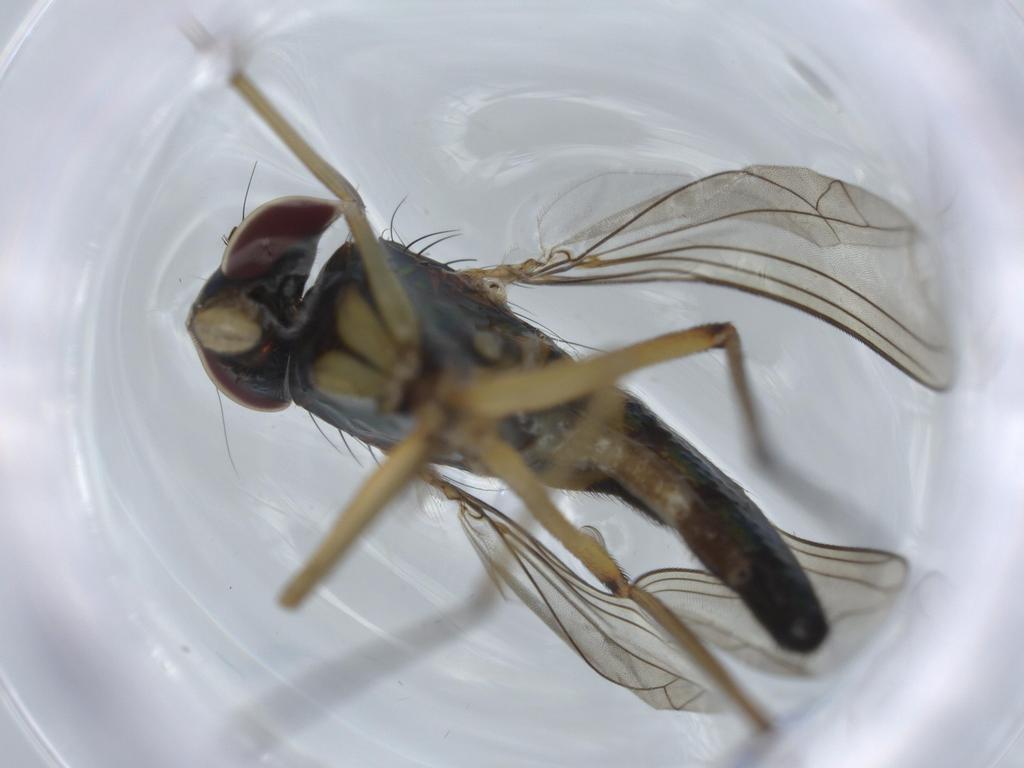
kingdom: Animalia
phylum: Arthropoda
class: Insecta
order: Diptera
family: Dolichopodidae
